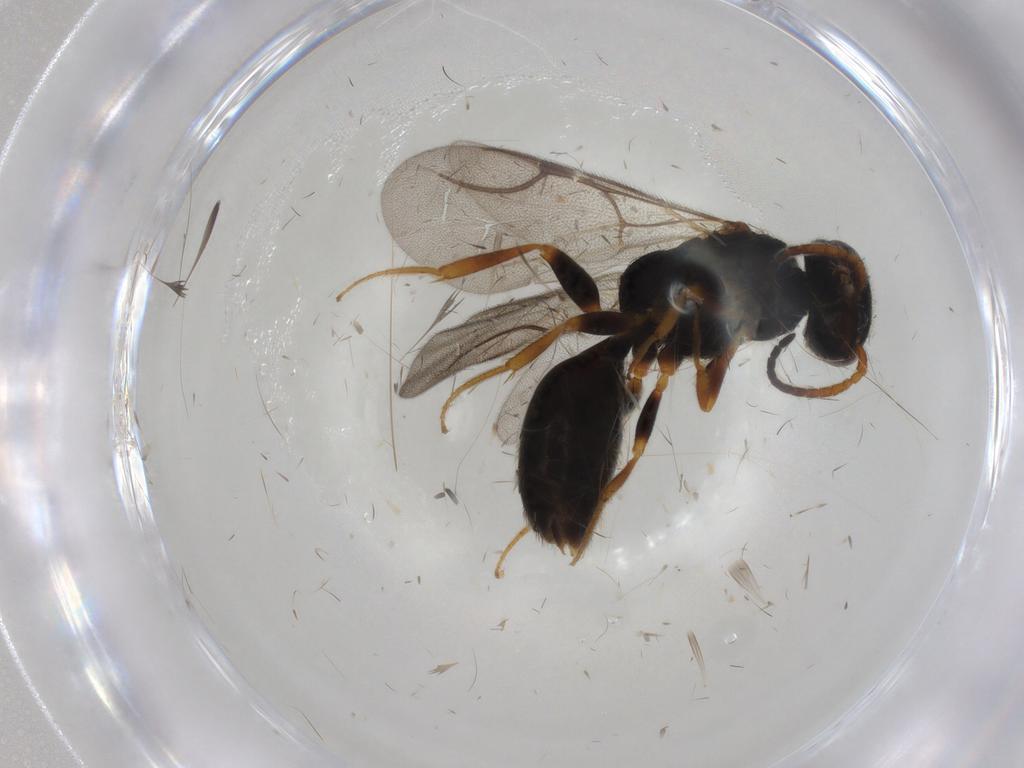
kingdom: Animalia
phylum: Arthropoda
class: Insecta
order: Hymenoptera
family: Bethylidae
